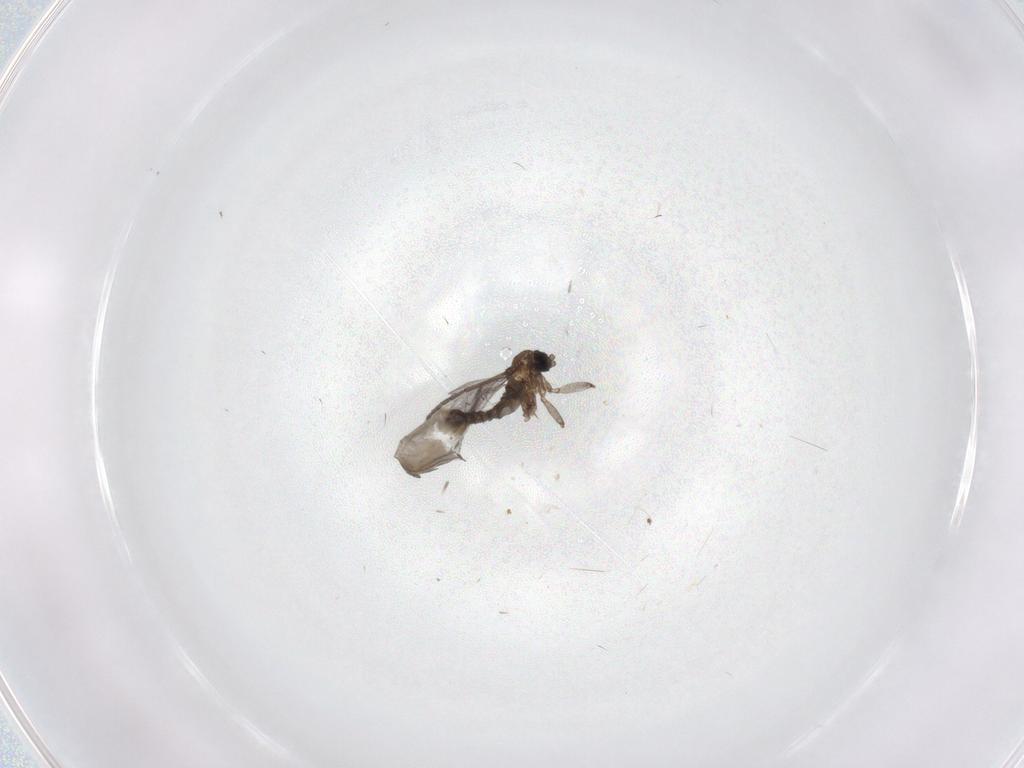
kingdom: Animalia
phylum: Arthropoda
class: Insecta
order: Diptera
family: Sciaridae
